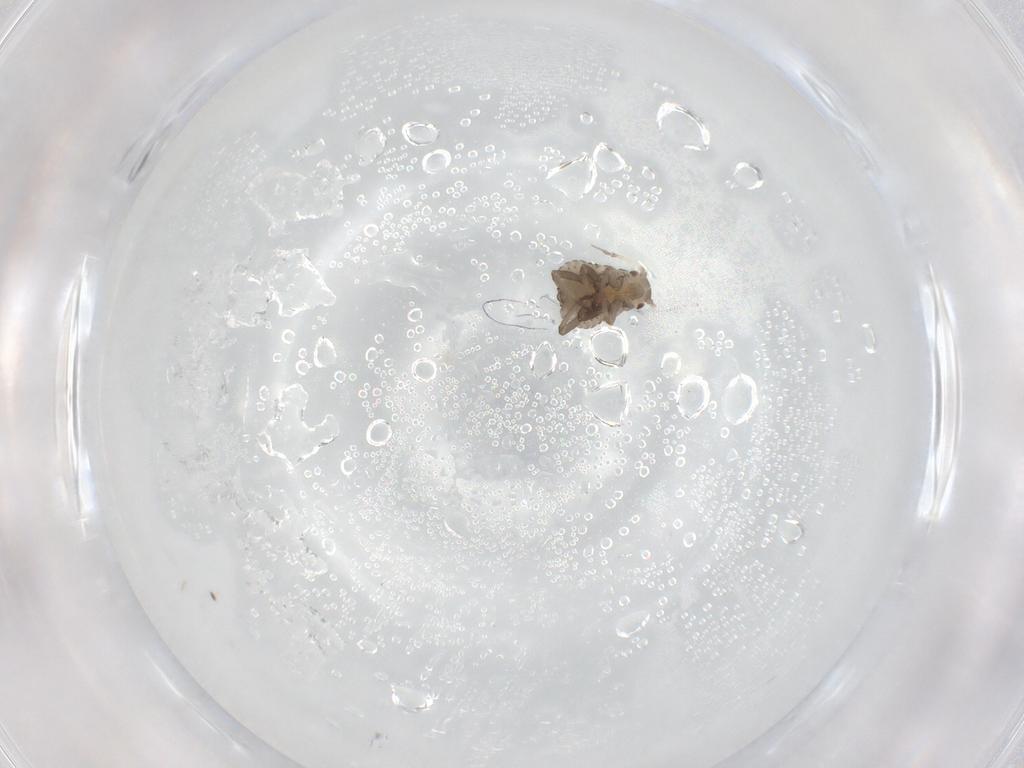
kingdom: Animalia
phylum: Arthropoda
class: Insecta
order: Hemiptera
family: Aphididae
